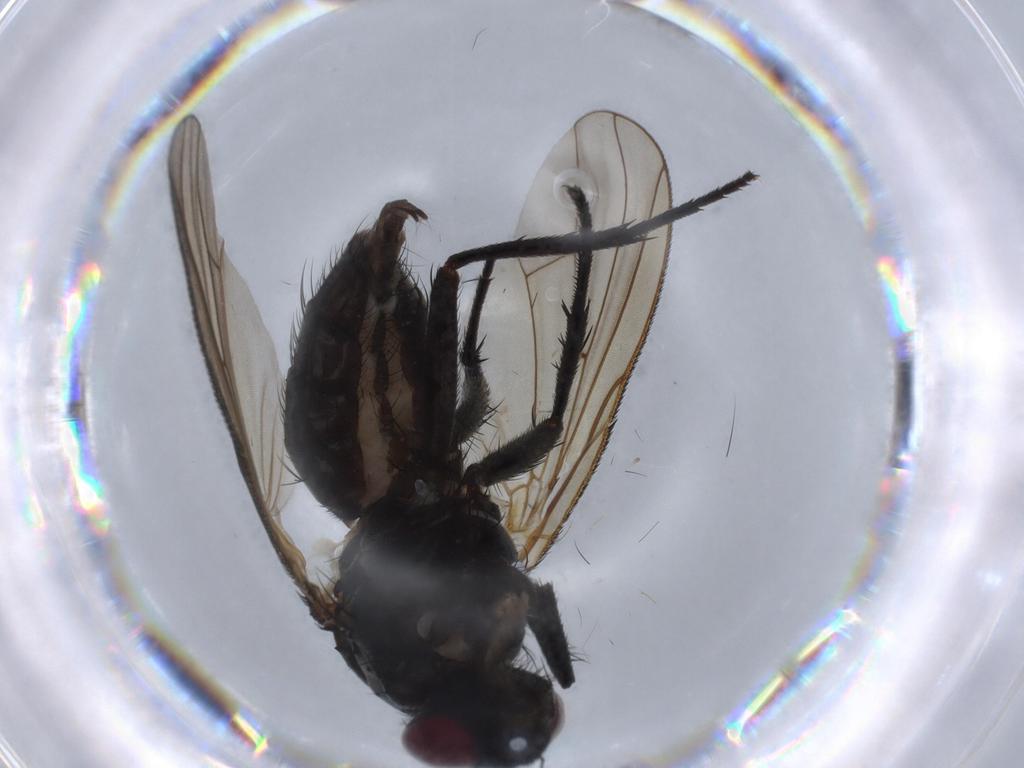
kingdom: Animalia
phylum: Arthropoda
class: Insecta
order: Diptera
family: Anthomyiidae
